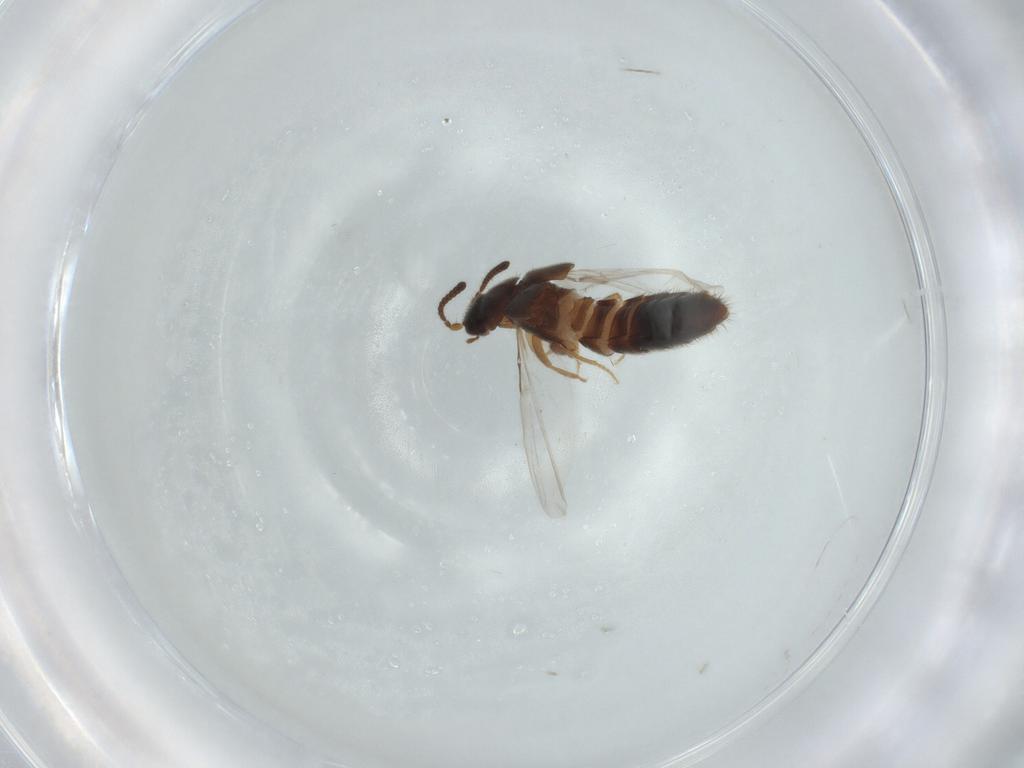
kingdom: Animalia
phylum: Arthropoda
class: Insecta
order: Coleoptera
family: Staphylinidae
